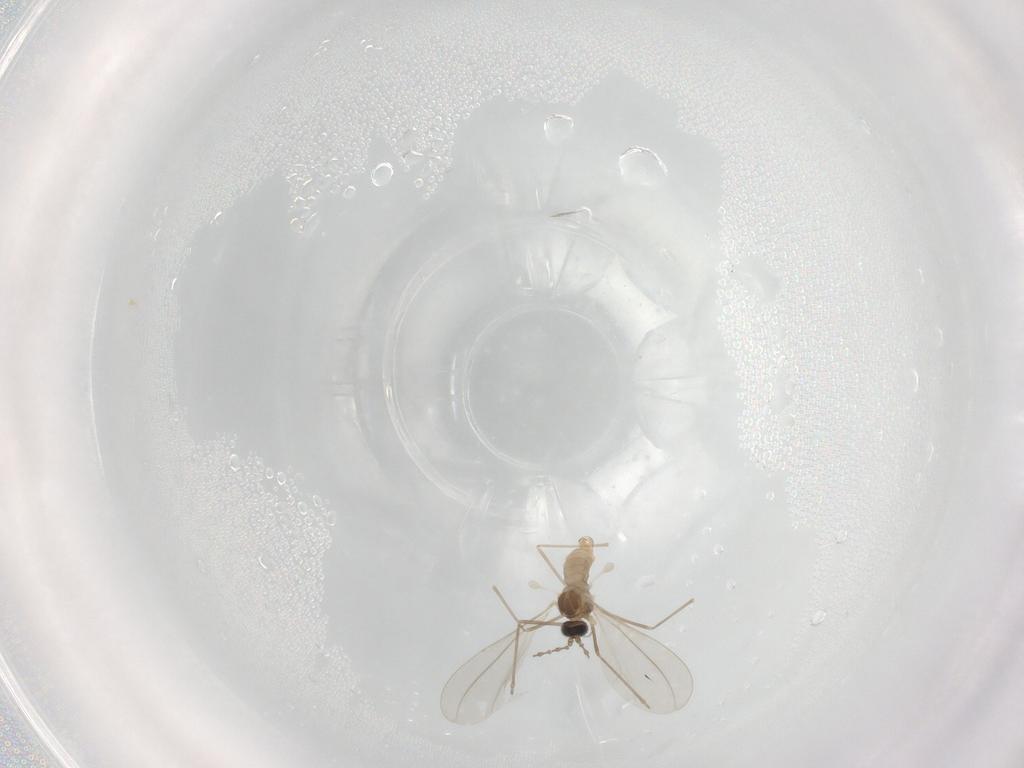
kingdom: Animalia
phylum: Arthropoda
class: Insecta
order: Diptera
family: Cecidomyiidae
